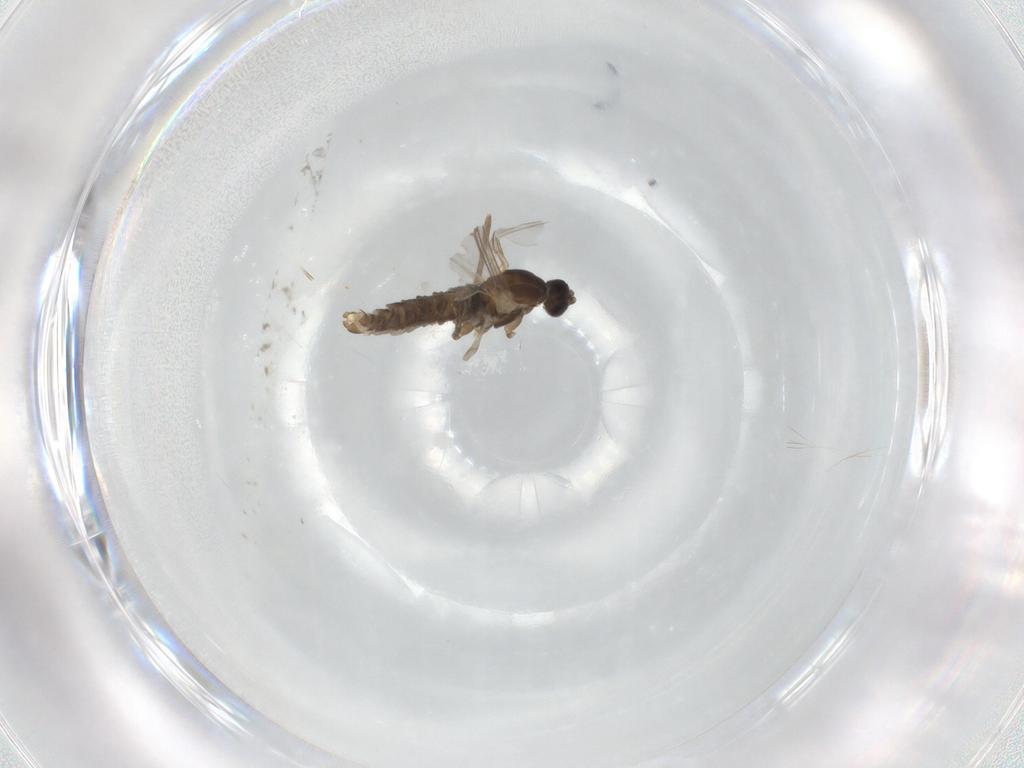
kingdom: Animalia
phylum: Arthropoda
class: Insecta
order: Diptera
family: Cecidomyiidae
